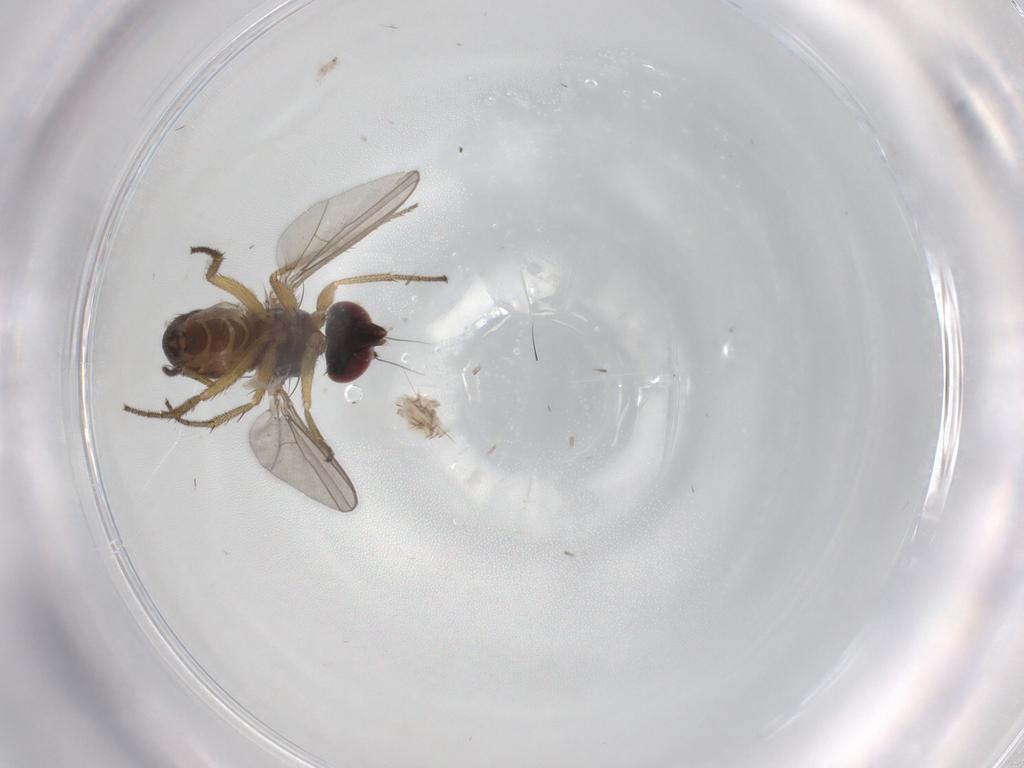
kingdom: Animalia
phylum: Arthropoda
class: Insecta
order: Diptera
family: Micropezidae
